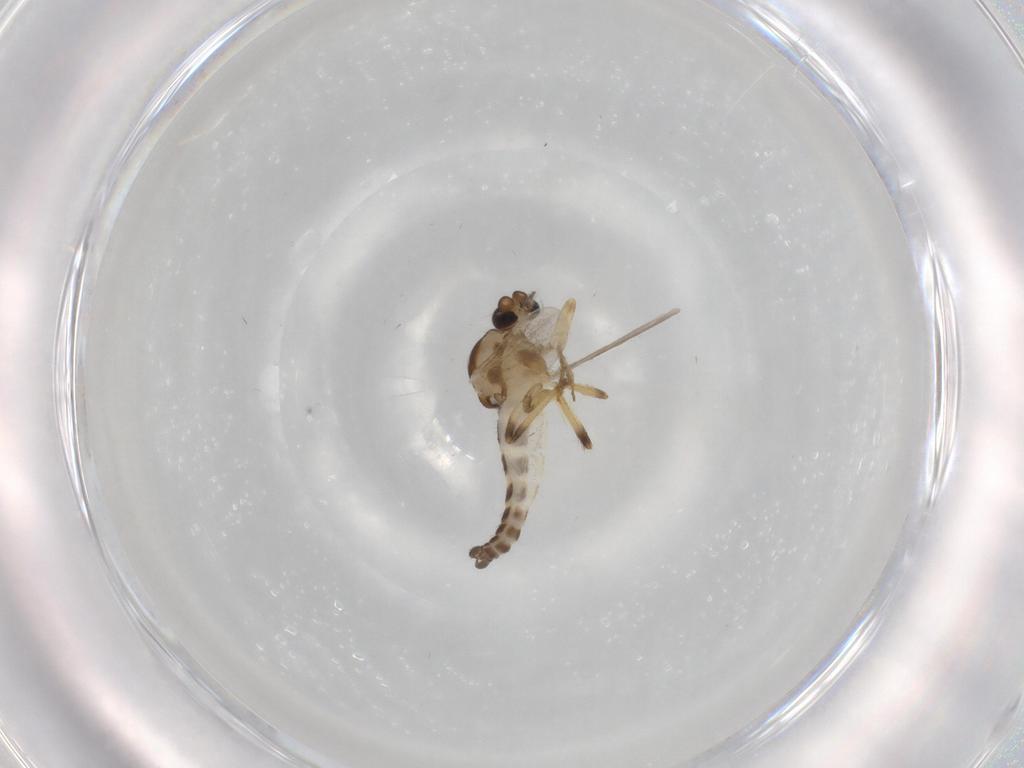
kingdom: Animalia
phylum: Arthropoda
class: Insecta
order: Diptera
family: Ceratopogonidae
